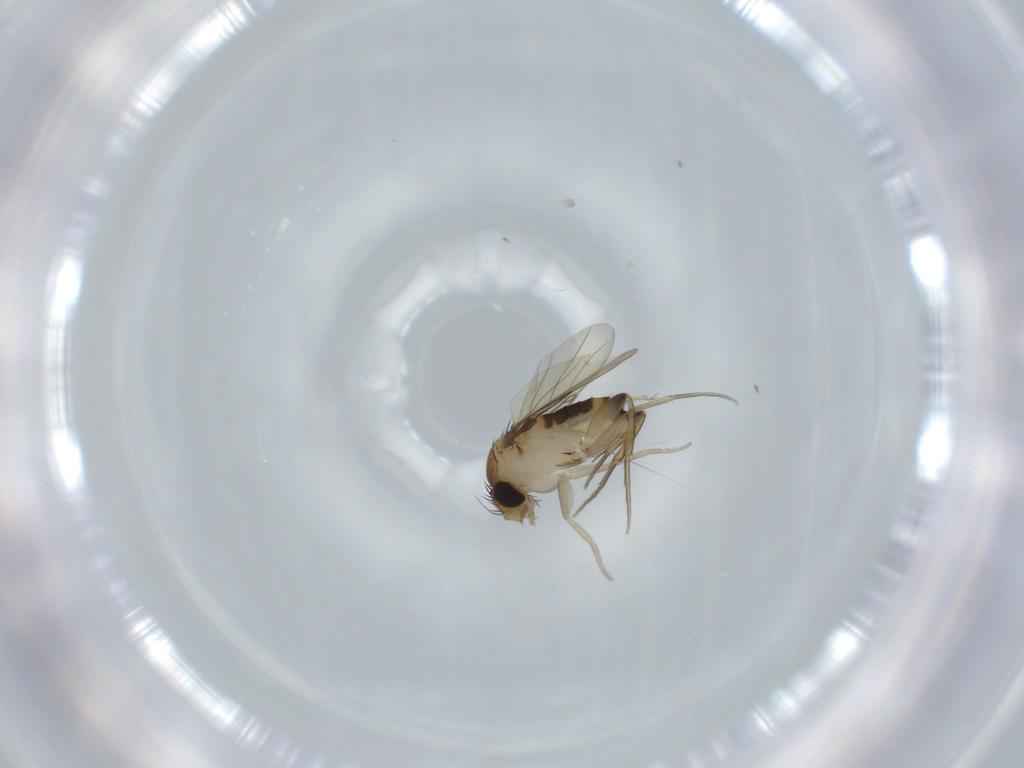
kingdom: Animalia
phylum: Arthropoda
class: Insecta
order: Diptera
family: Phoridae
